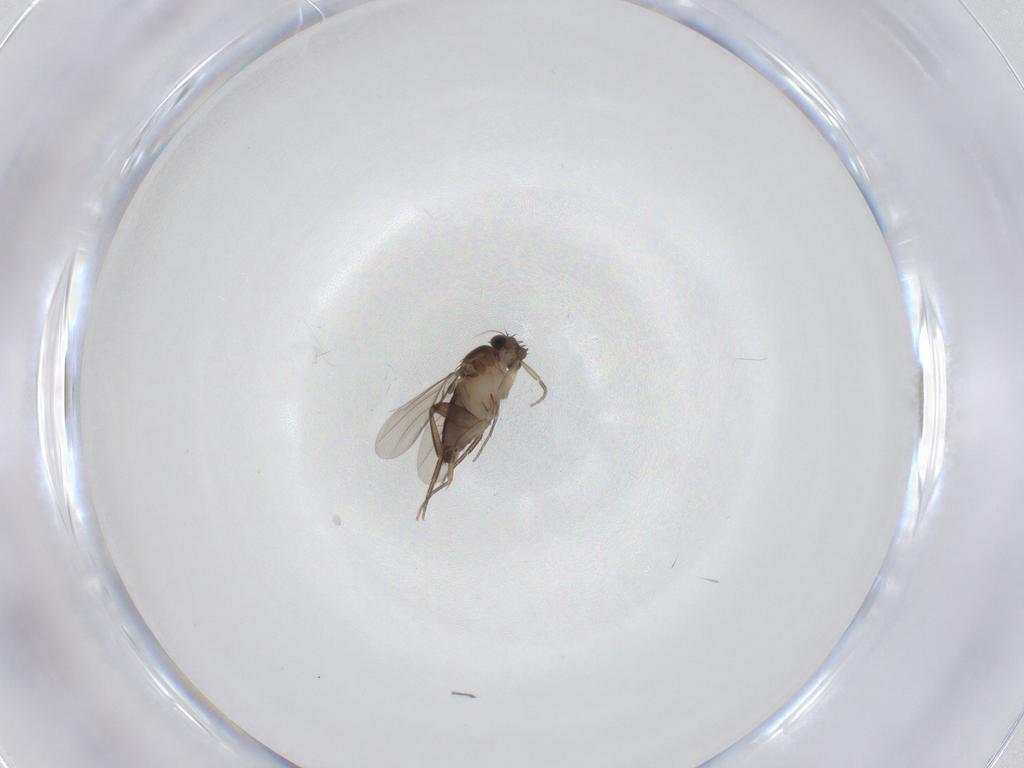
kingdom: Animalia
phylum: Arthropoda
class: Insecta
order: Diptera
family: Phoridae
